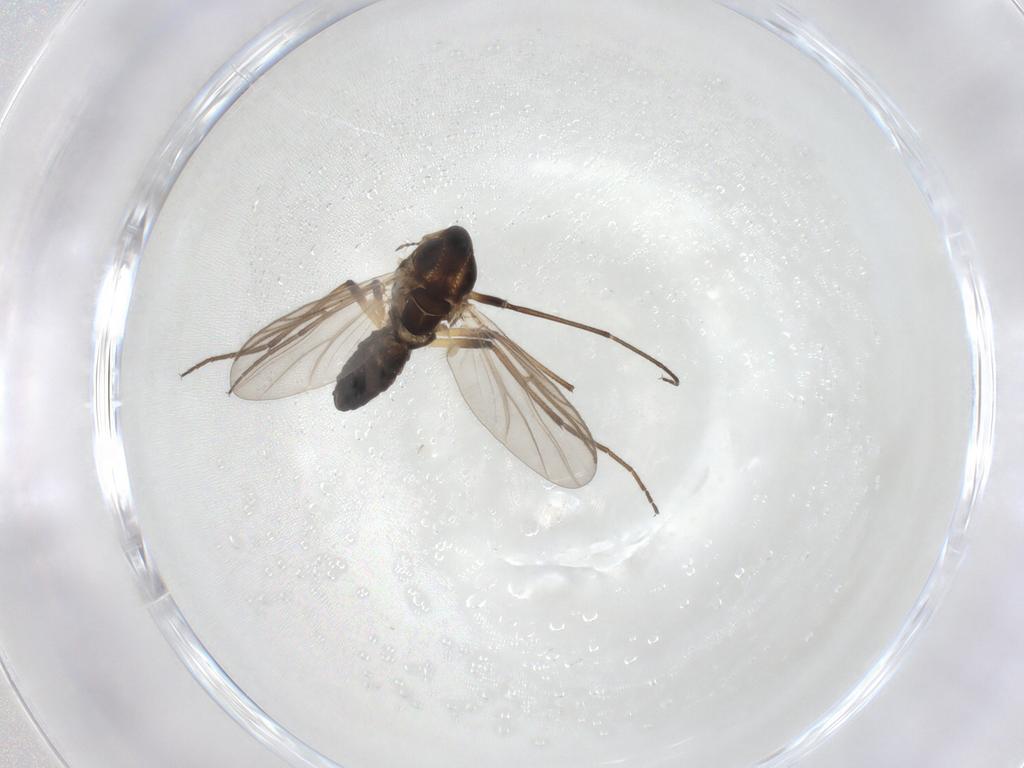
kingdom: Animalia
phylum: Arthropoda
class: Insecta
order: Diptera
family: Chironomidae
